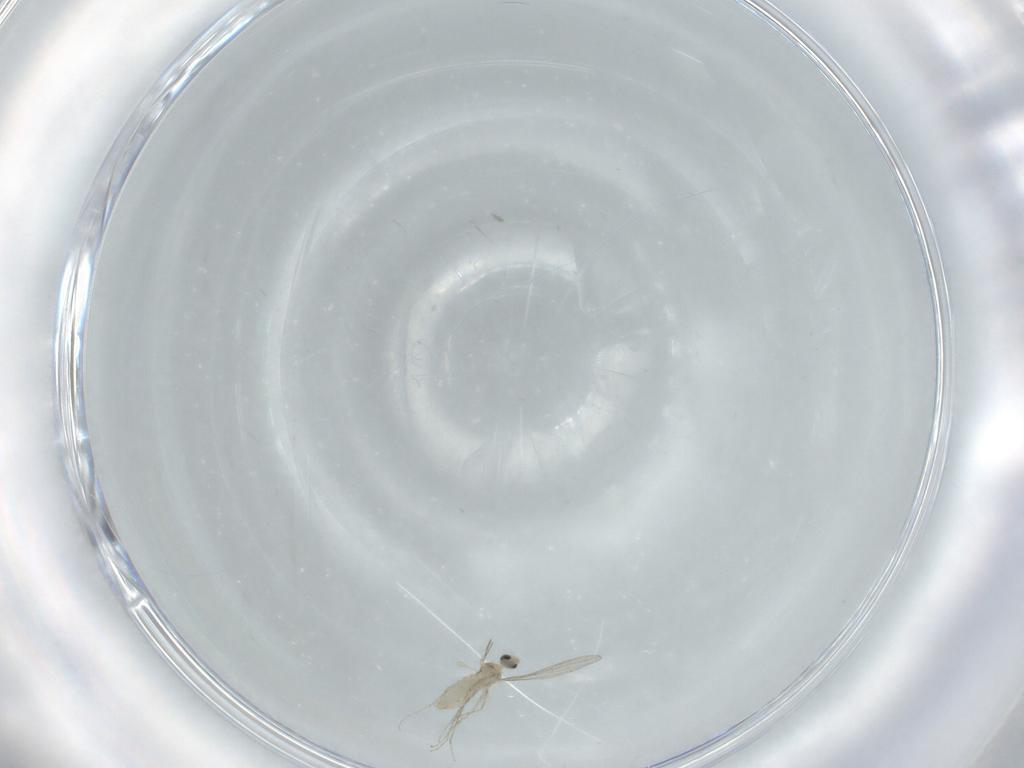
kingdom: Animalia
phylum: Arthropoda
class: Insecta
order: Diptera
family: Cecidomyiidae
